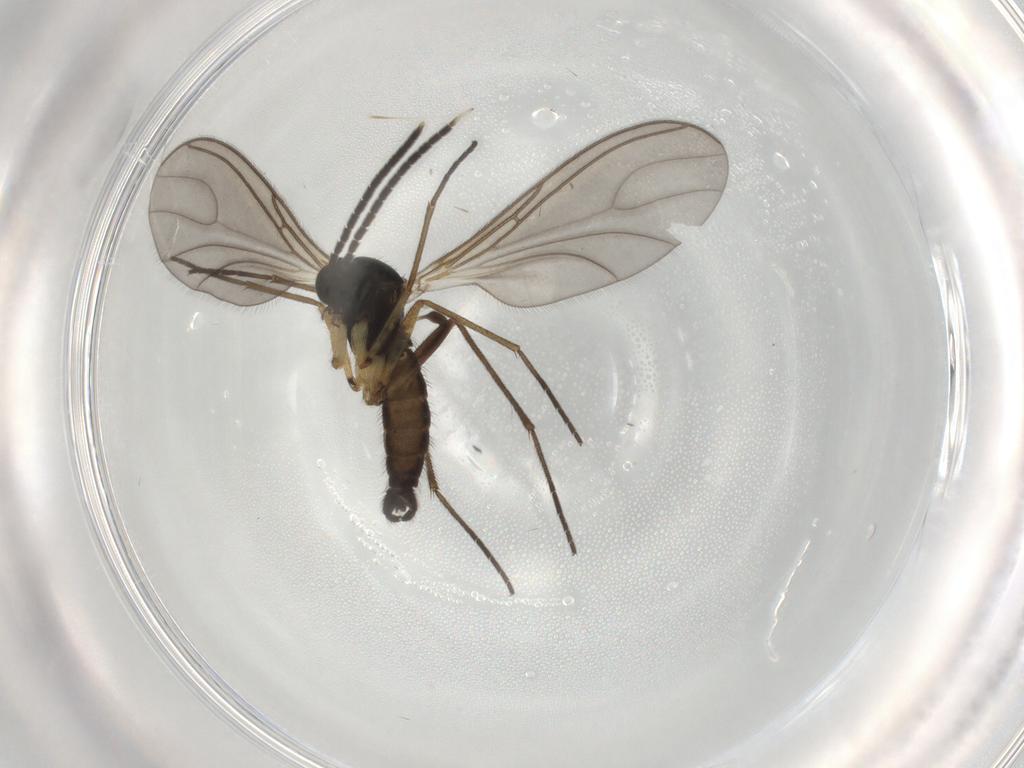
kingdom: Animalia
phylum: Arthropoda
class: Insecta
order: Diptera
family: Sciaridae
